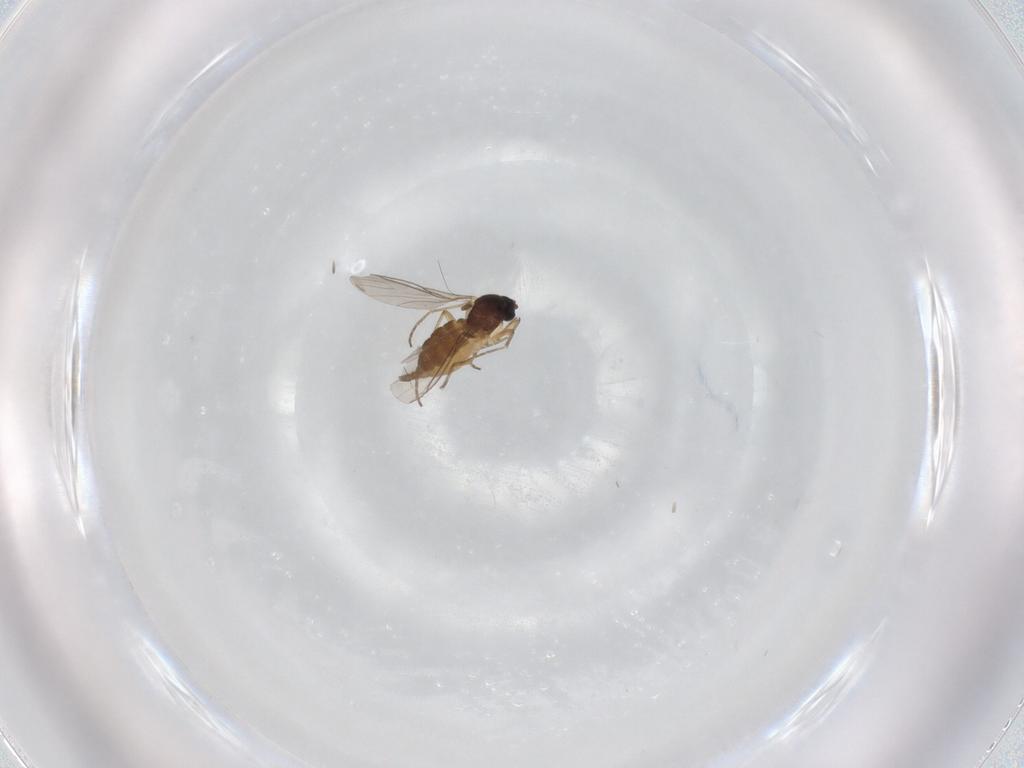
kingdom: Animalia
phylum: Arthropoda
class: Insecta
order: Diptera
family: Sciaridae
